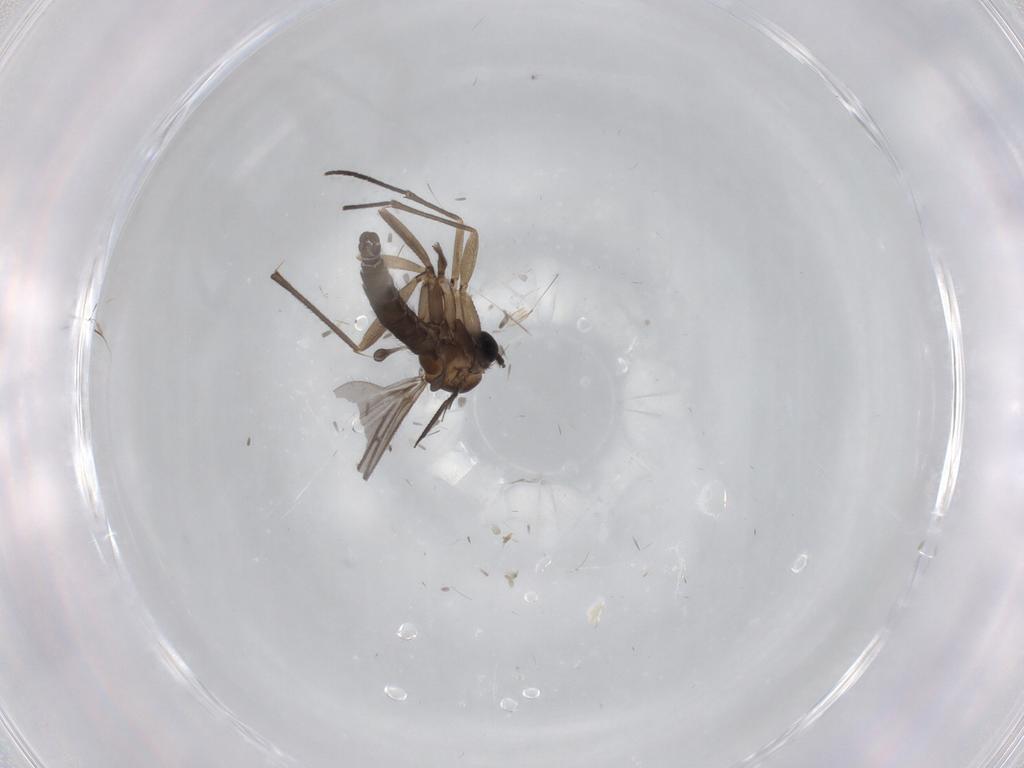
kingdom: Animalia
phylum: Arthropoda
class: Insecta
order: Diptera
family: Sciaridae
